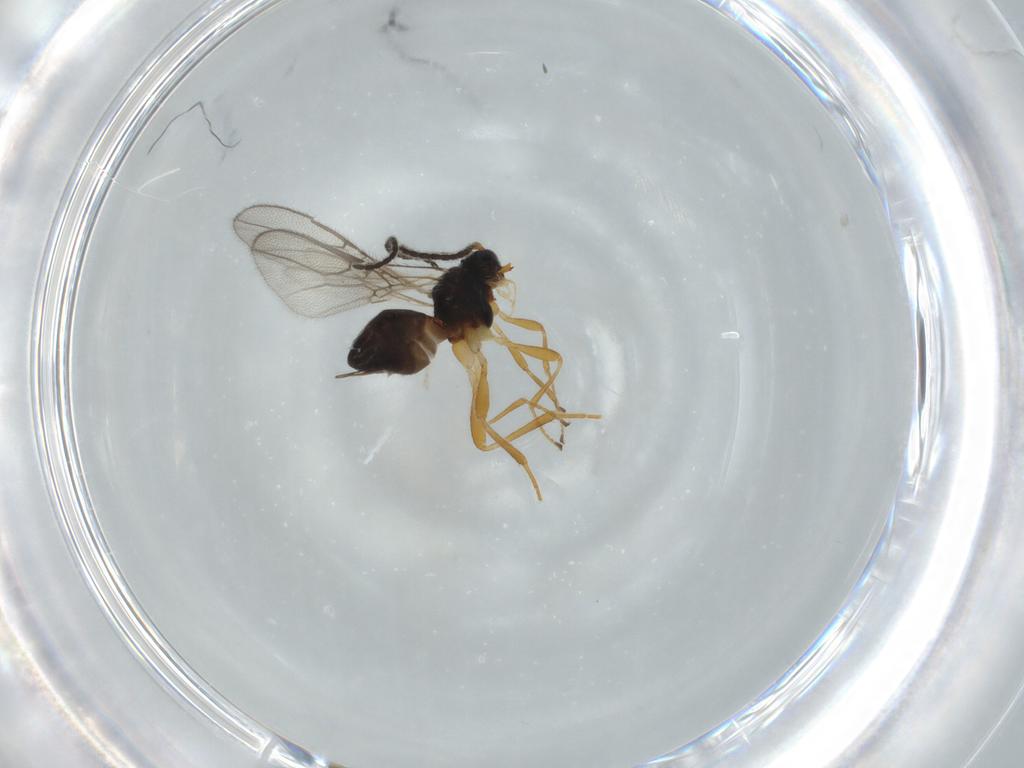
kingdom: Animalia
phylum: Arthropoda
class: Insecta
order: Hymenoptera
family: Braconidae
